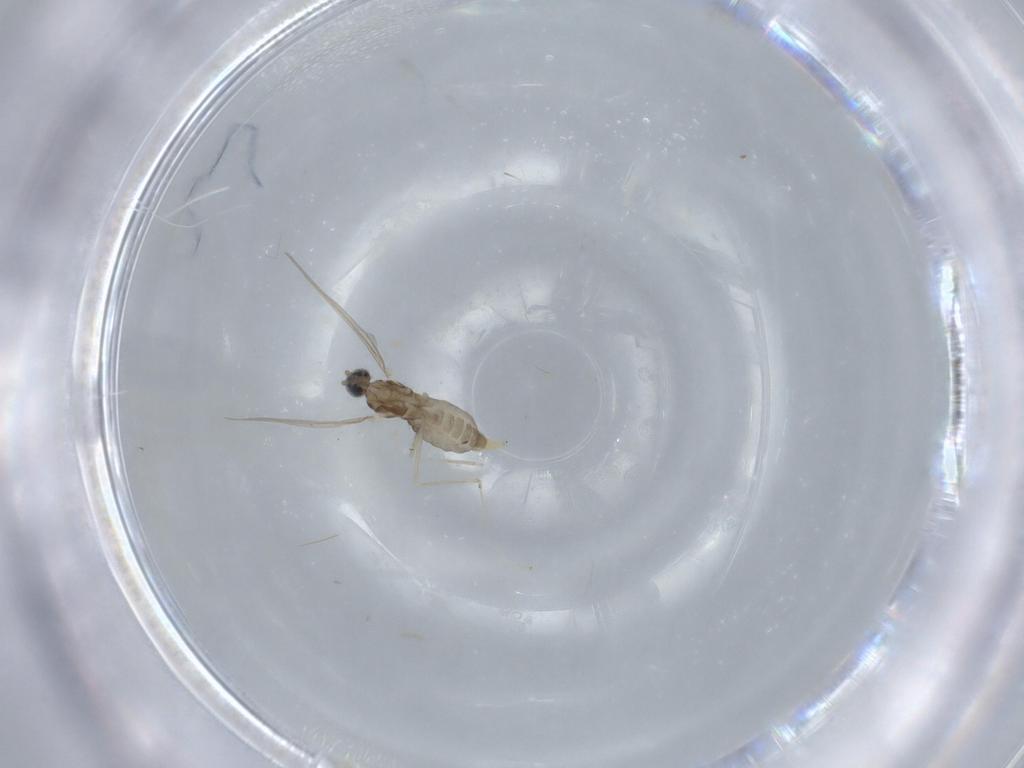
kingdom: Animalia
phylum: Arthropoda
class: Insecta
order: Diptera
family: Cecidomyiidae
